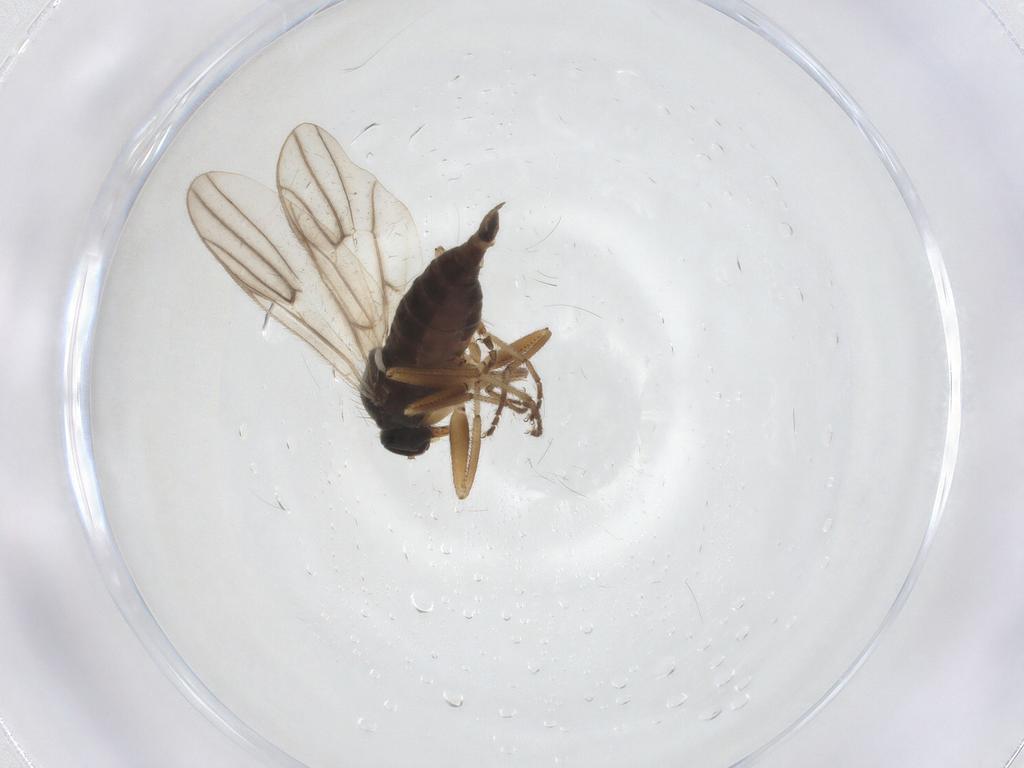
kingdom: Animalia
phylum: Arthropoda
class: Insecta
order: Diptera
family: Hybotidae
